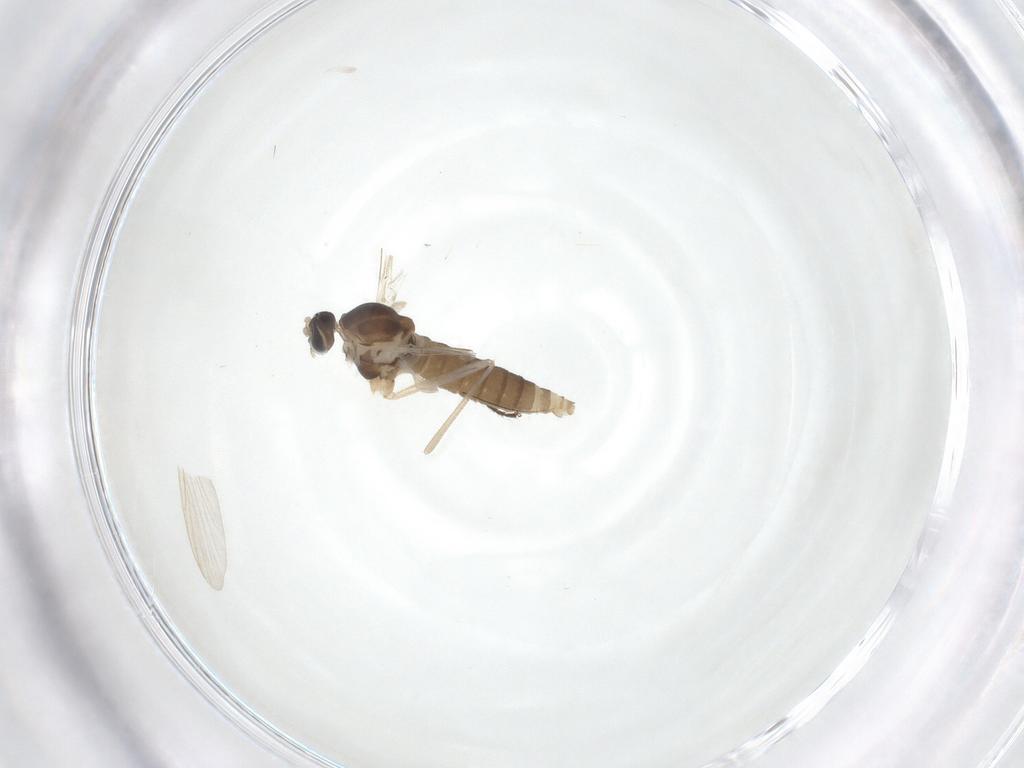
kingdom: Animalia
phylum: Arthropoda
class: Insecta
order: Diptera
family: Cecidomyiidae
